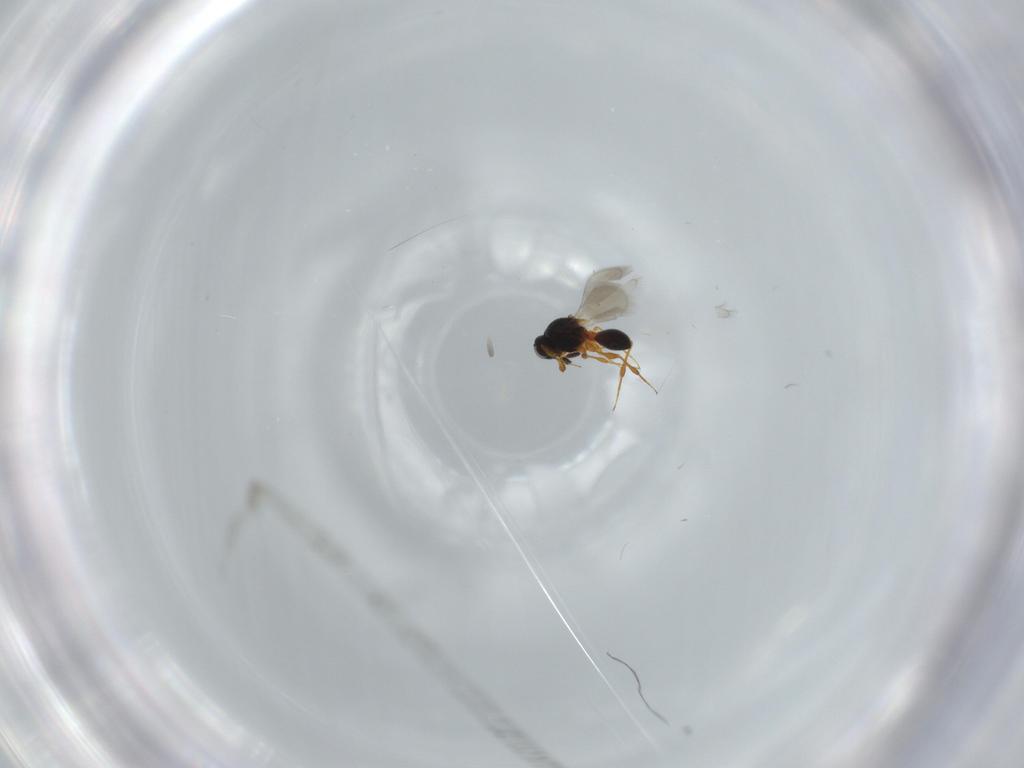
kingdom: Animalia
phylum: Arthropoda
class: Insecta
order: Hymenoptera
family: Platygastridae
